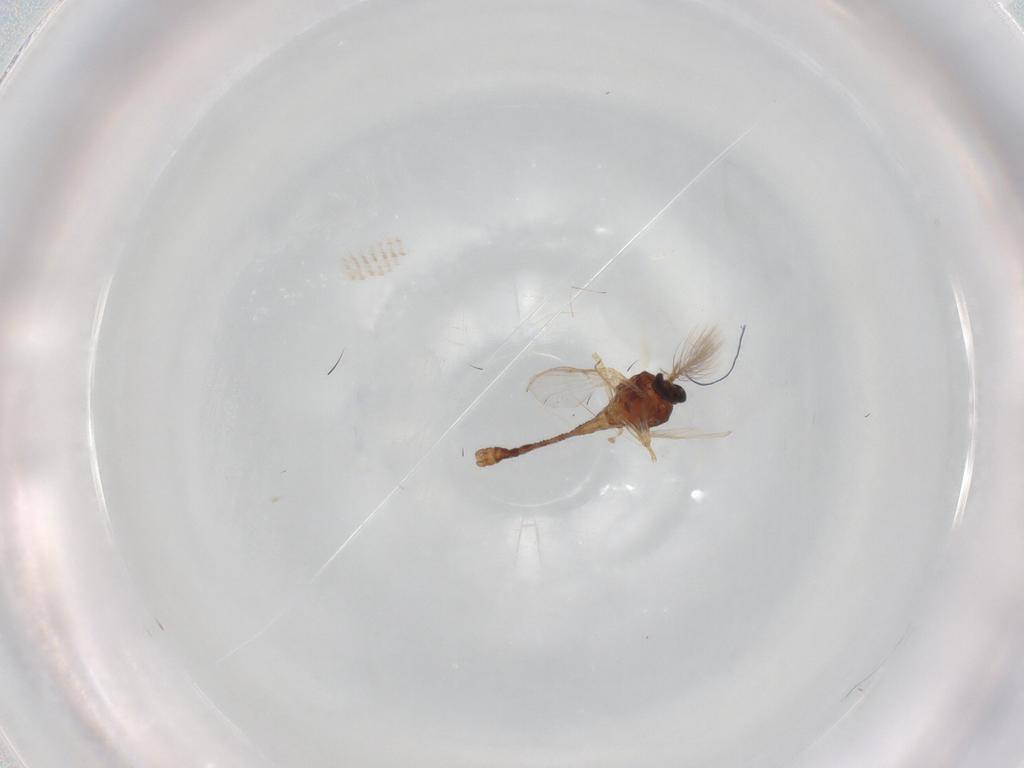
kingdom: Animalia
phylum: Arthropoda
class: Insecta
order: Diptera
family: Ceratopogonidae
